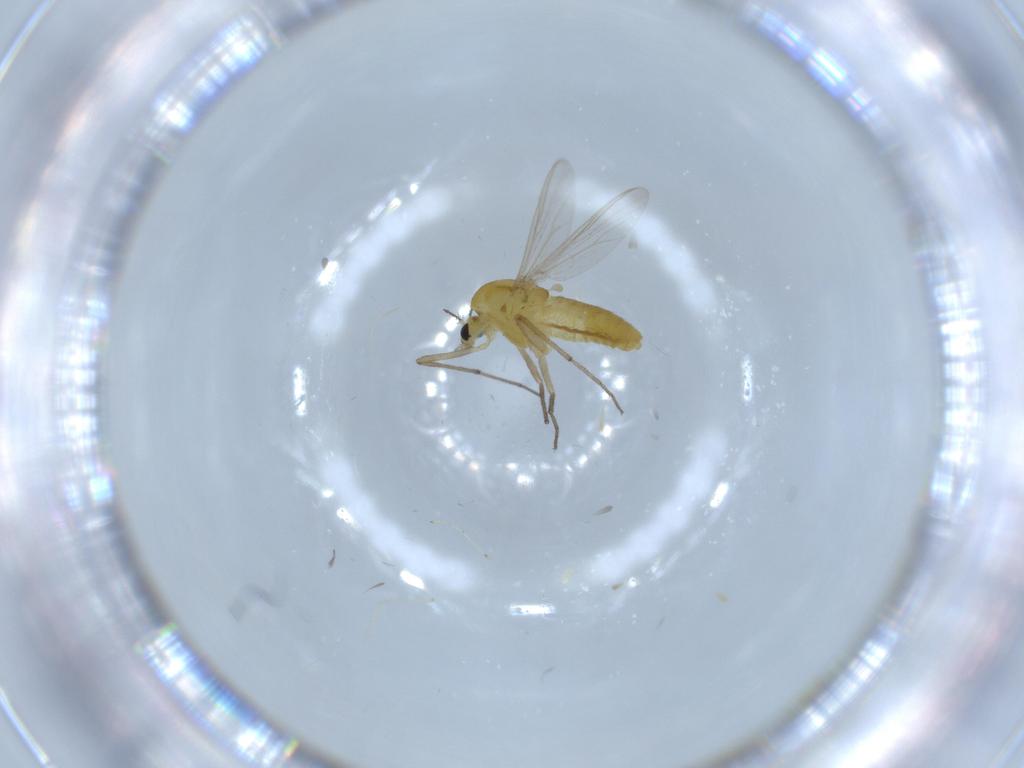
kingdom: Animalia
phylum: Arthropoda
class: Insecta
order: Diptera
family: Chironomidae
